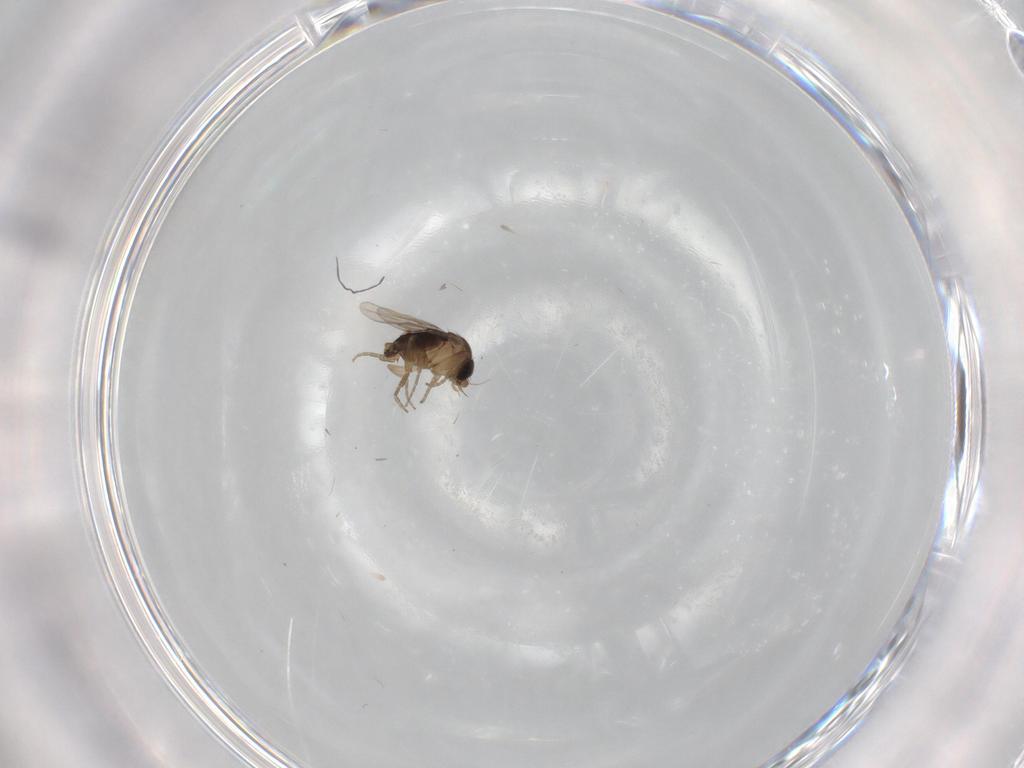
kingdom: Animalia
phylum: Arthropoda
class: Insecta
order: Diptera
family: Phoridae
